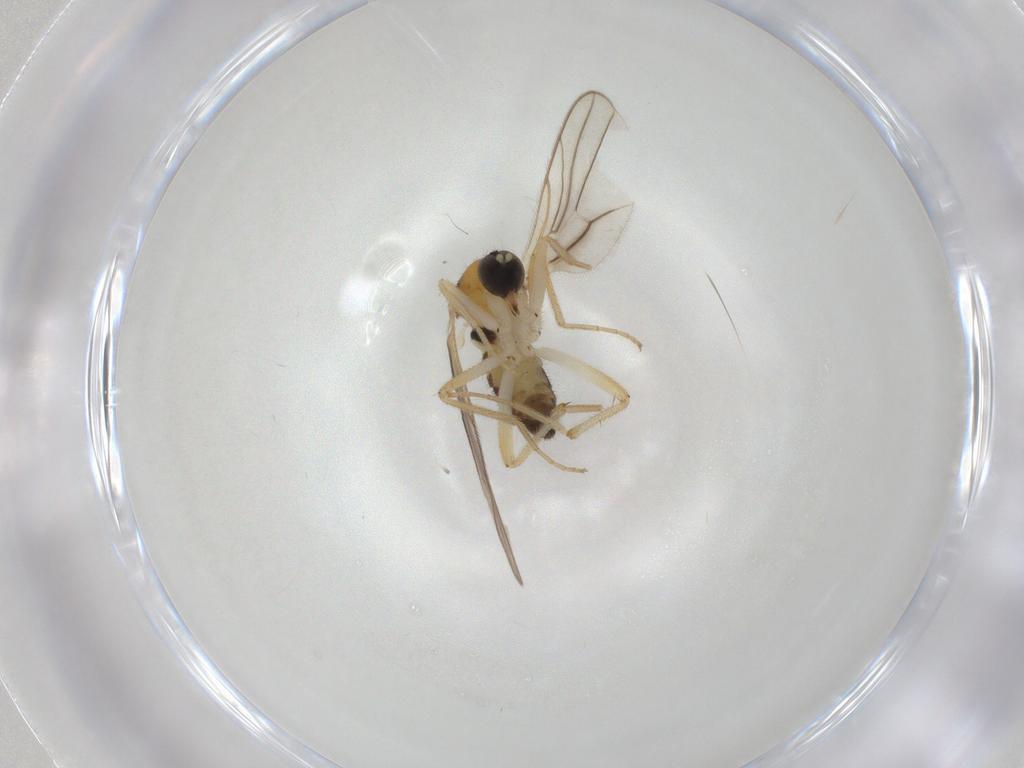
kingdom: Animalia
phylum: Arthropoda
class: Insecta
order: Diptera
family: Hybotidae
